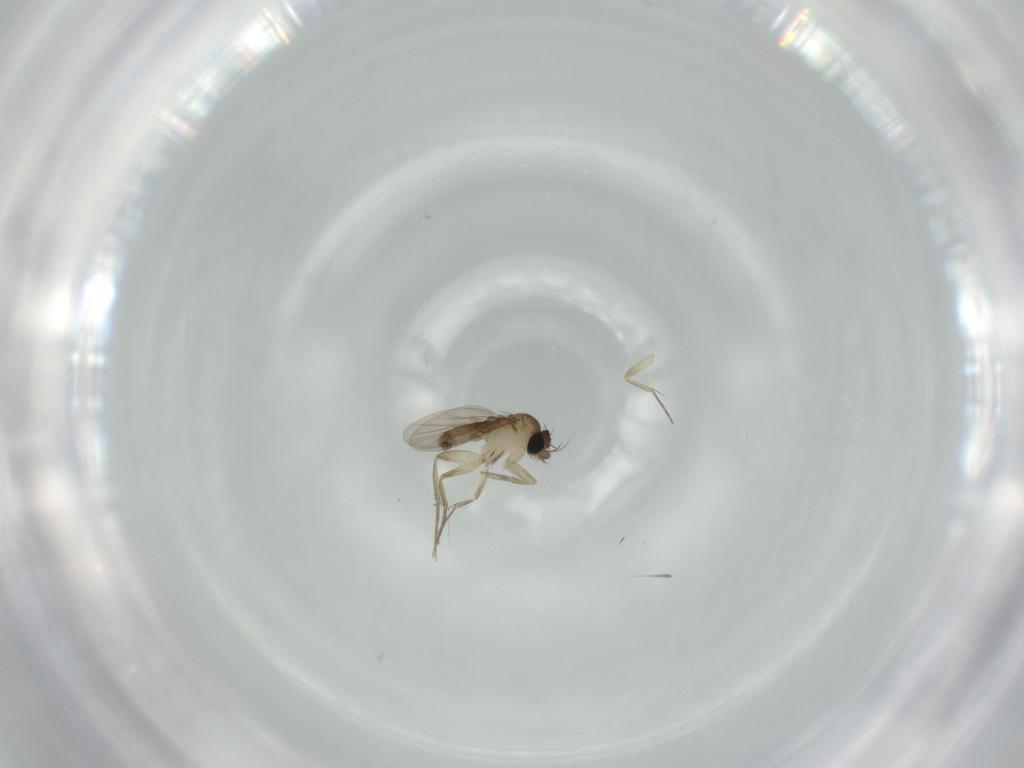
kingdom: Animalia
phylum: Arthropoda
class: Insecta
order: Diptera
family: Phoridae
